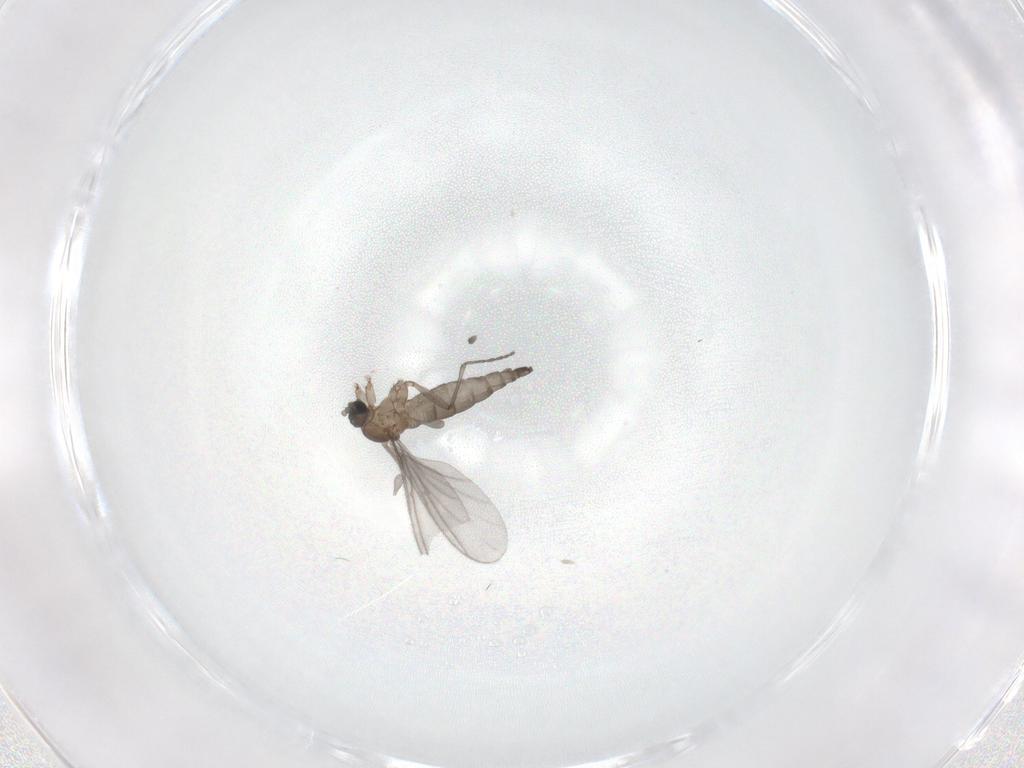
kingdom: Animalia
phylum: Arthropoda
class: Insecta
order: Diptera
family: Sciaridae
